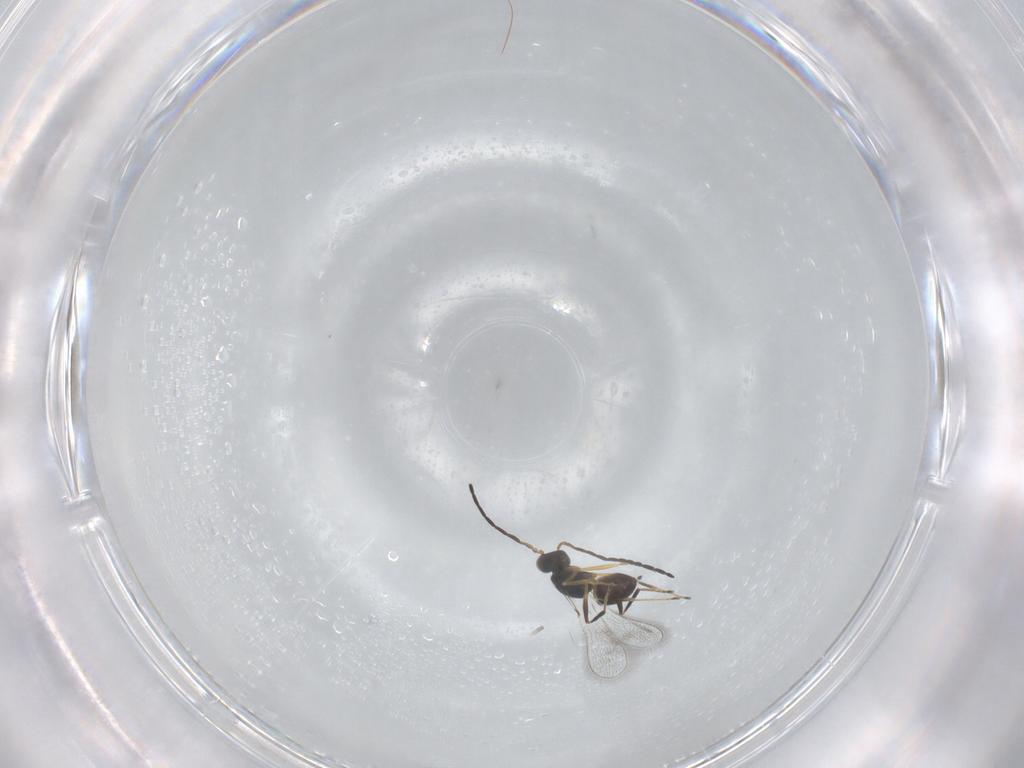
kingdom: Animalia
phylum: Arthropoda
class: Insecta
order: Hymenoptera
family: Mymaridae
